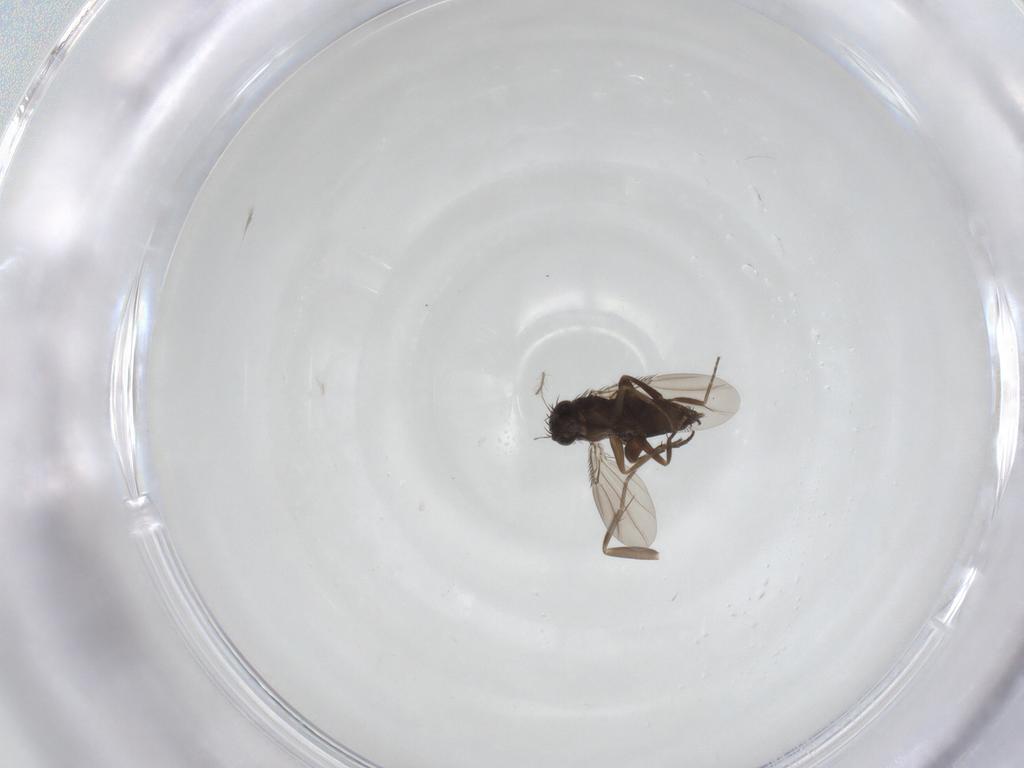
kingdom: Animalia
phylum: Arthropoda
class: Insecta
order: Diptera
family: Phoridae
